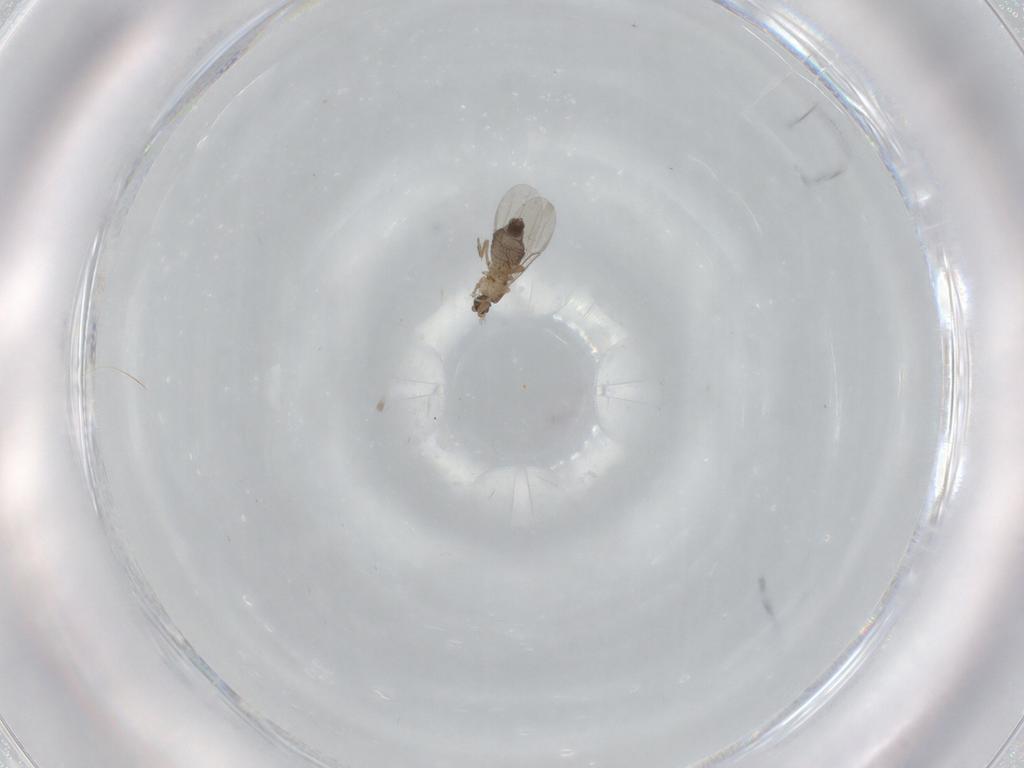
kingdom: Animalia
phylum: Arthropoda
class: Insecta
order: Diptera
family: Phoridae
